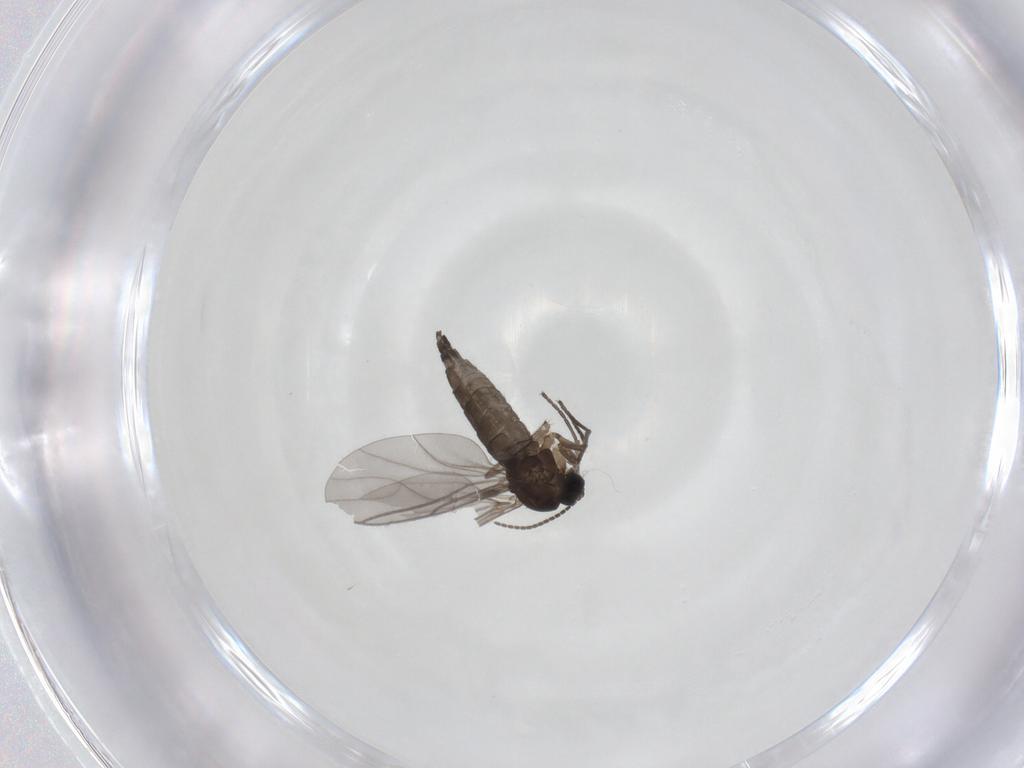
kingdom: Animalia
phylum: Arthropoda
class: Insecta
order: Diptera
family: Sciaridae
